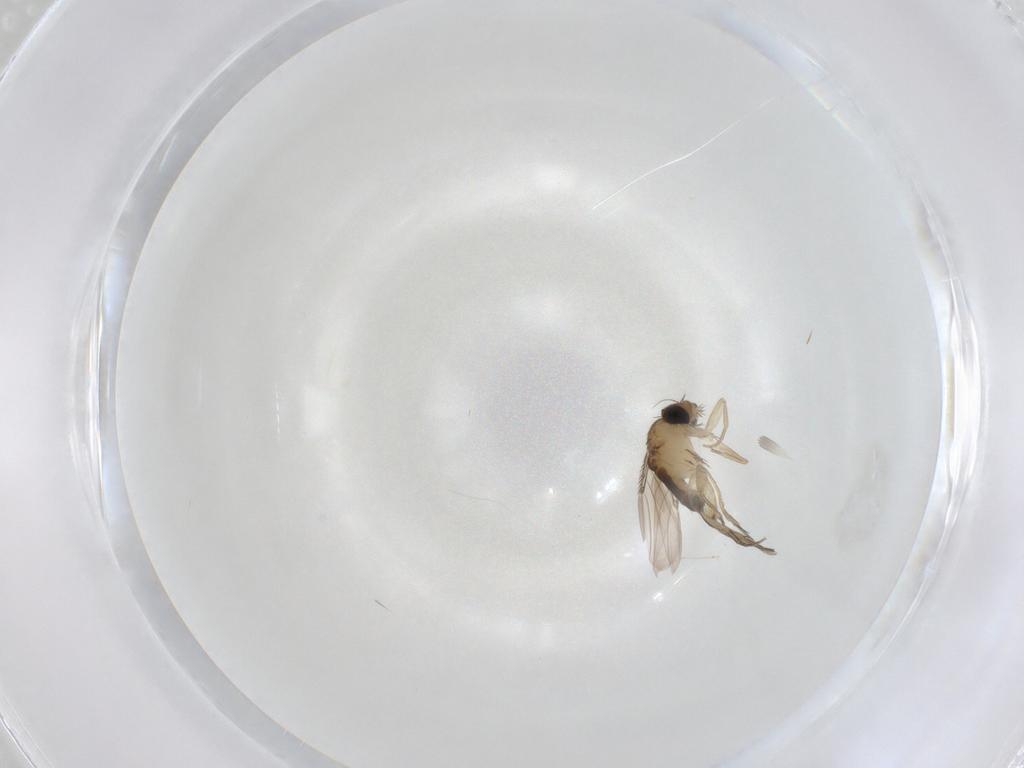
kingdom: Animalia
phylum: Arthropoda
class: Insecta
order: Diptera
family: Phoridae
